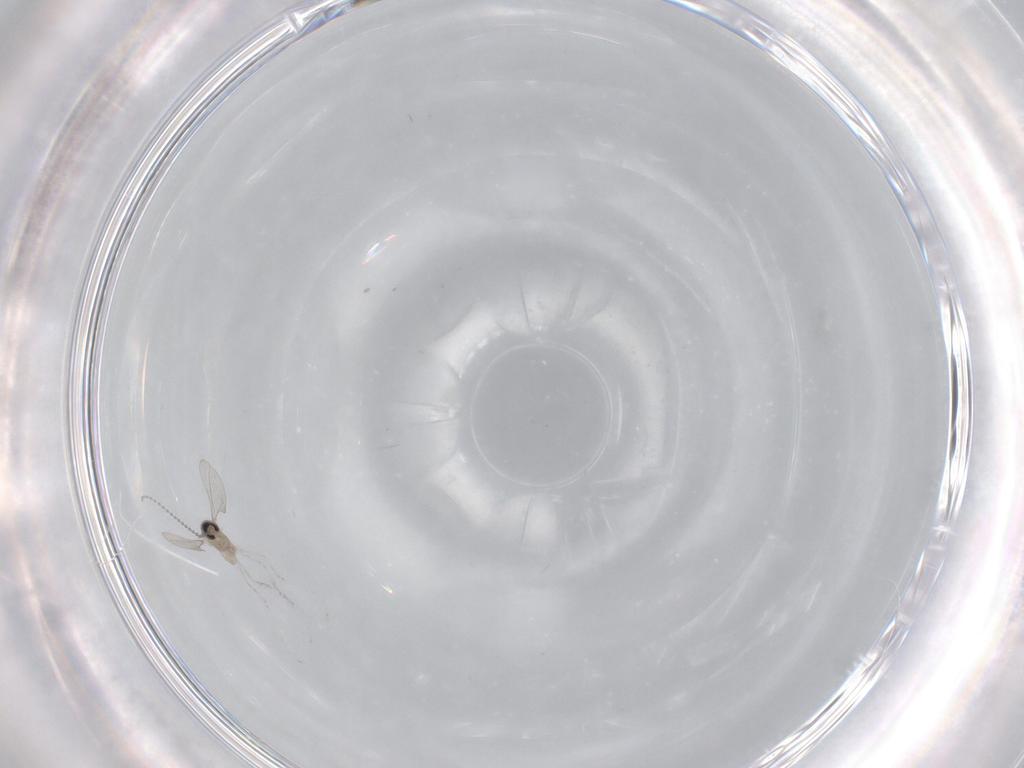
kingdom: Animalia
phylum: Arthropoda
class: Insecta
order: Diptera
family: Cecidomyiidae
